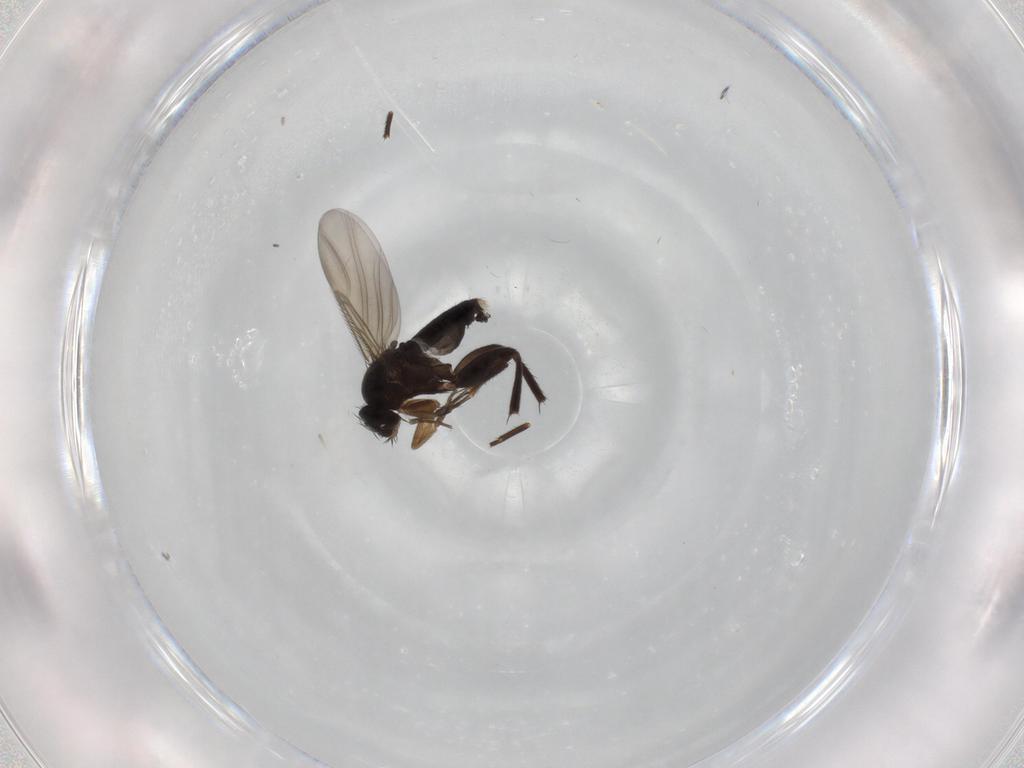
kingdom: Animalia
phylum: Arthropoda
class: Insecta
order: Diptera
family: Phoridae
